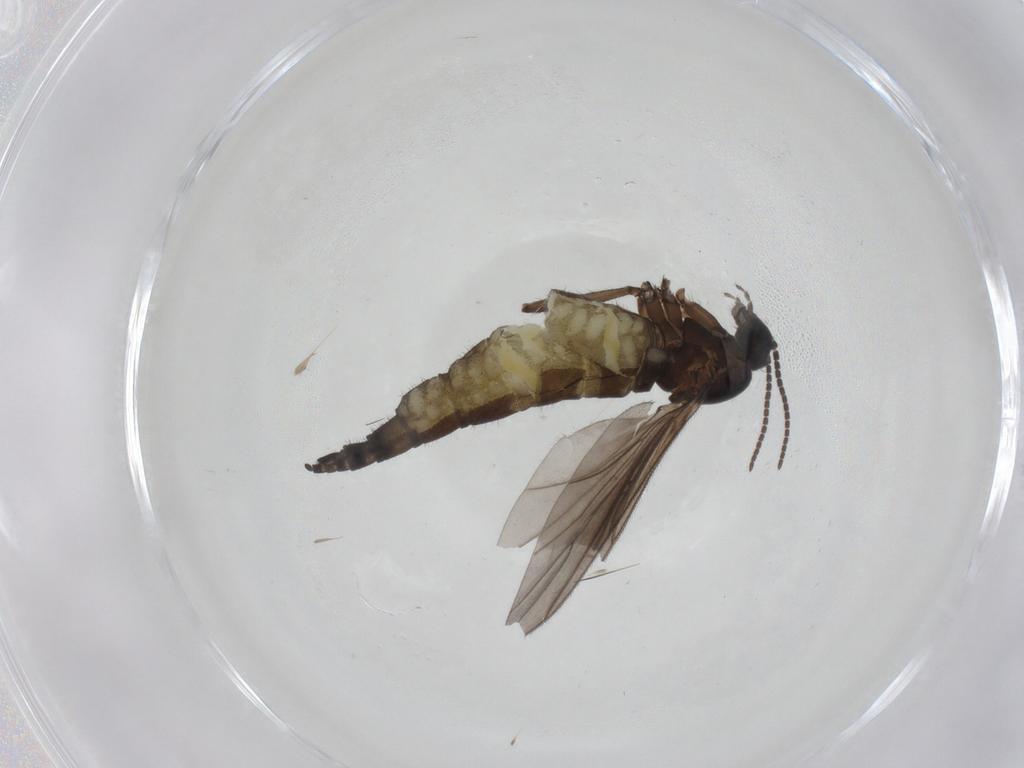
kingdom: Animalia
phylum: Arthropoda
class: Insecta
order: Diptera
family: Sciaridae
